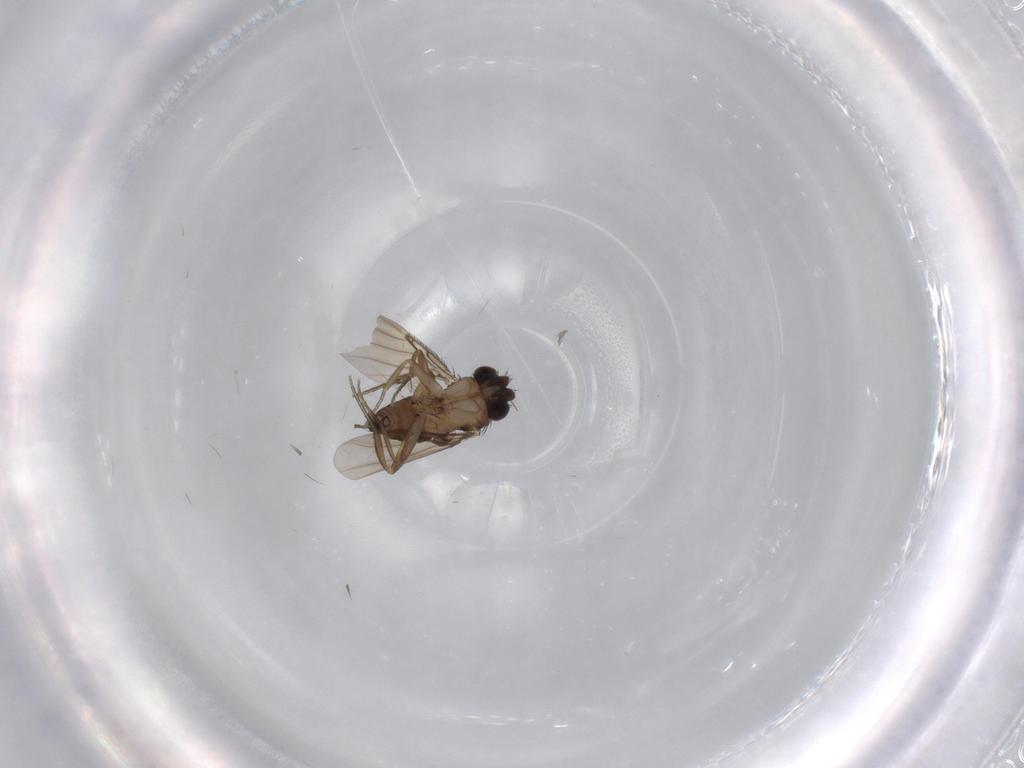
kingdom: Animalia
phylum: Arthropoda
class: Insecta
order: Diptera
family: Phoridae
